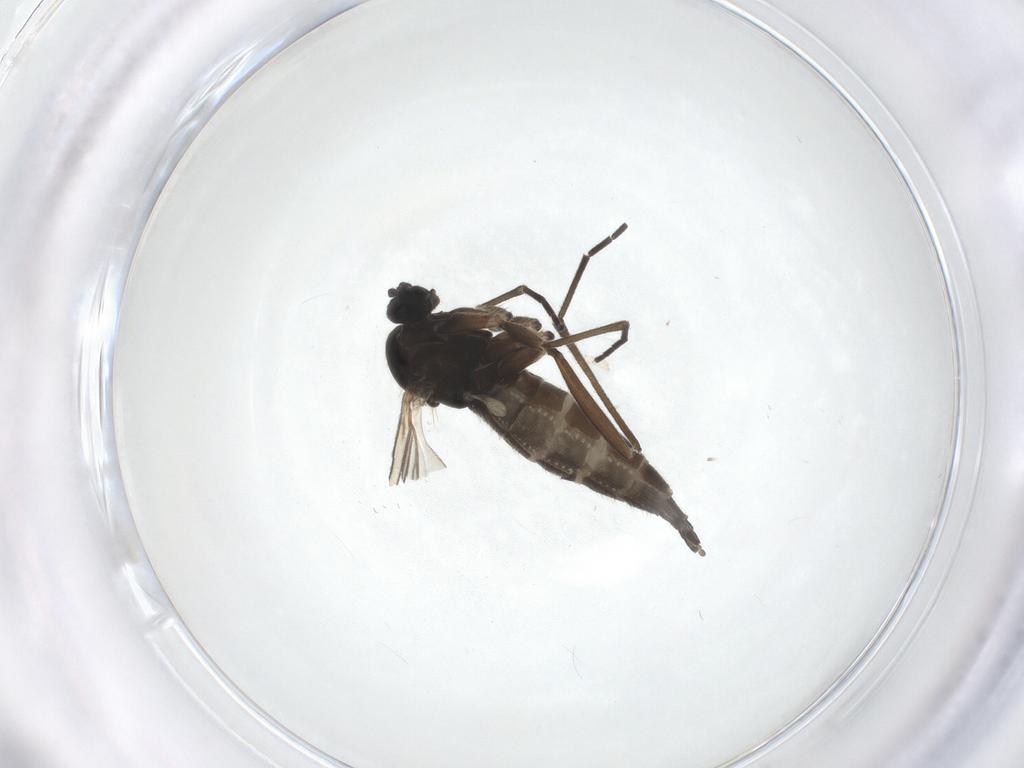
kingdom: Animalia
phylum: Arthropoda
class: Insecta
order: Diptera
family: Sciaridae
